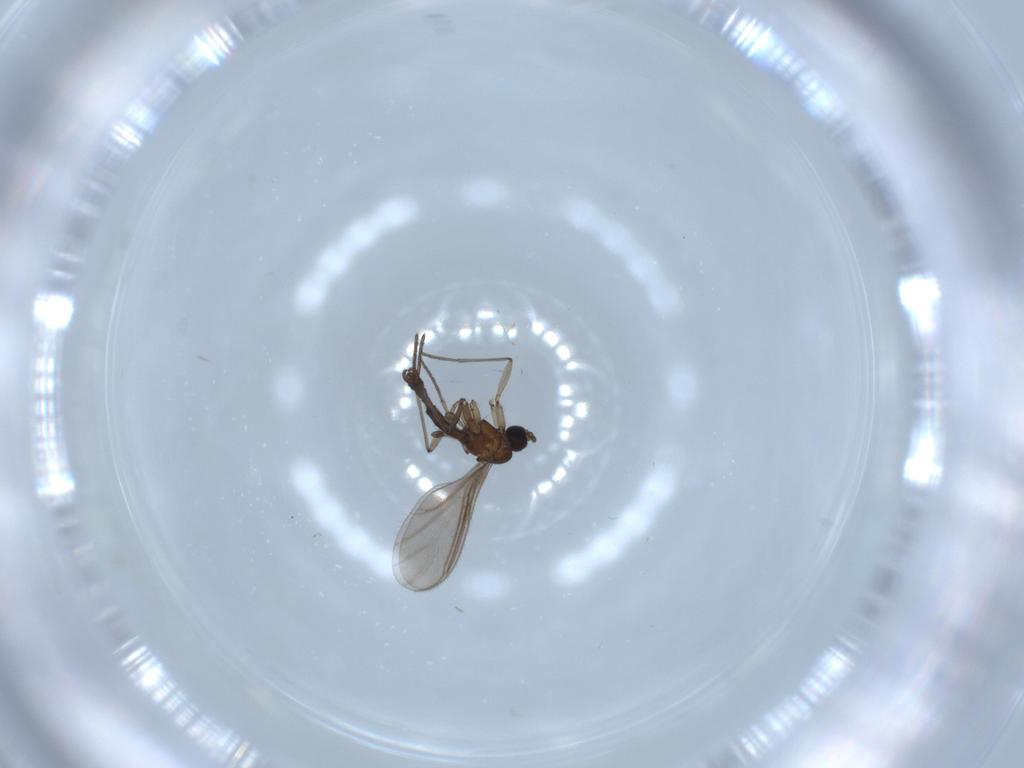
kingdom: Animalia
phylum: Arthropoda
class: Insecta
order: Diptera
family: Sciaridae
